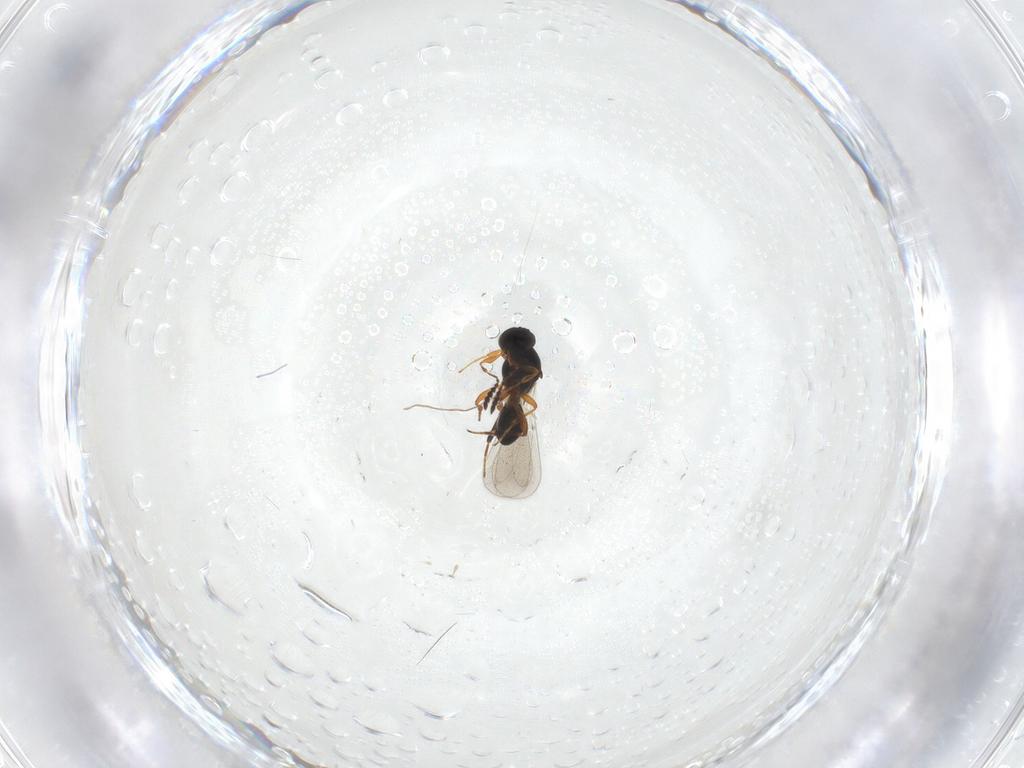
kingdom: Animalia
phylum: Arthropoda
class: Insecta
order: Hymenoptera
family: Platygastridae
